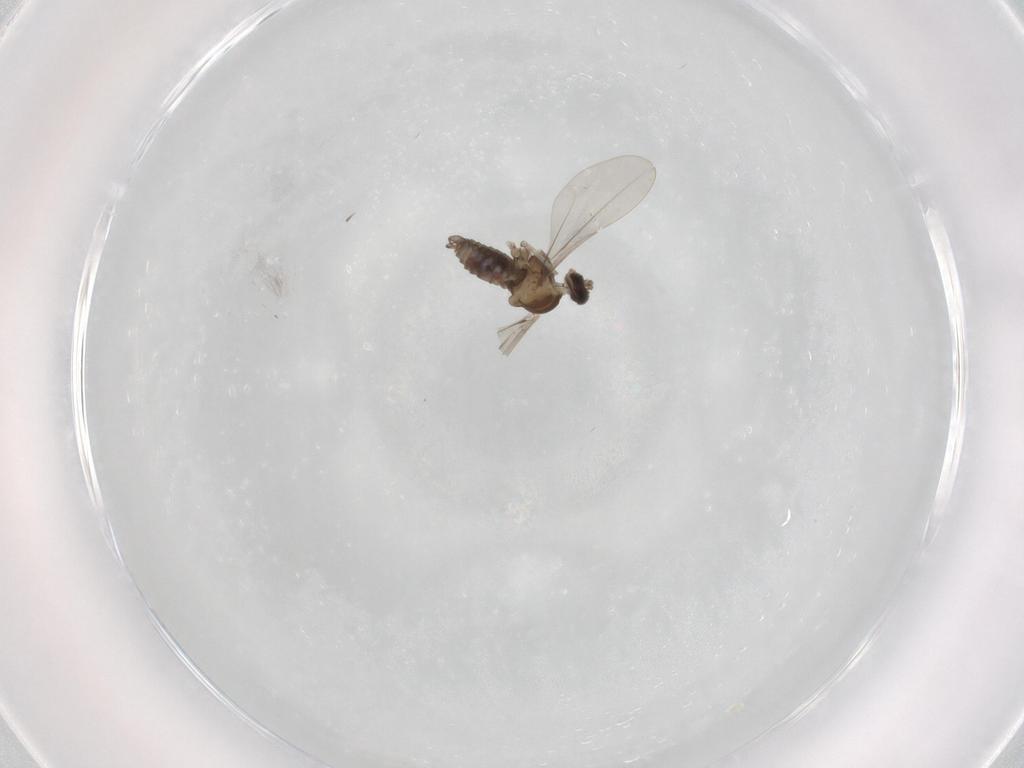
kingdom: Animalia
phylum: Arthropoda
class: Insecta
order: Diptera
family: Cecidomyiidae
